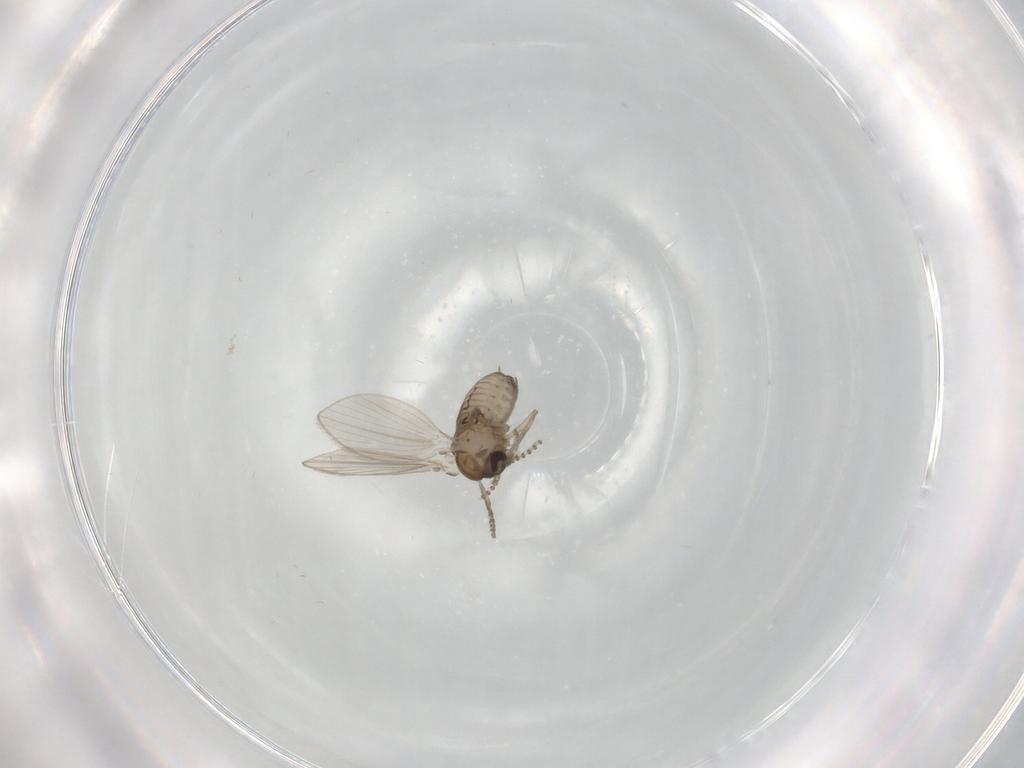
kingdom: Animalia
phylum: Arthropoda
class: Insecta
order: Diptera
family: Psychodidae
